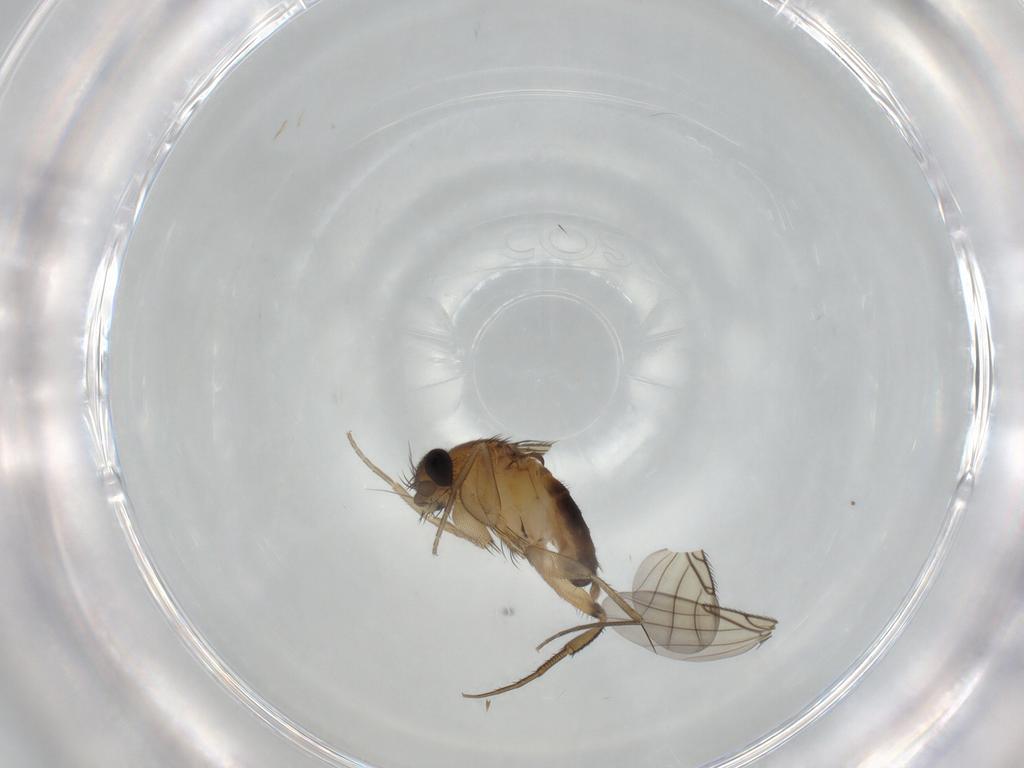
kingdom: Animalia
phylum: Arthropoda
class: Insecta
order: Diptera
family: Phoridae
